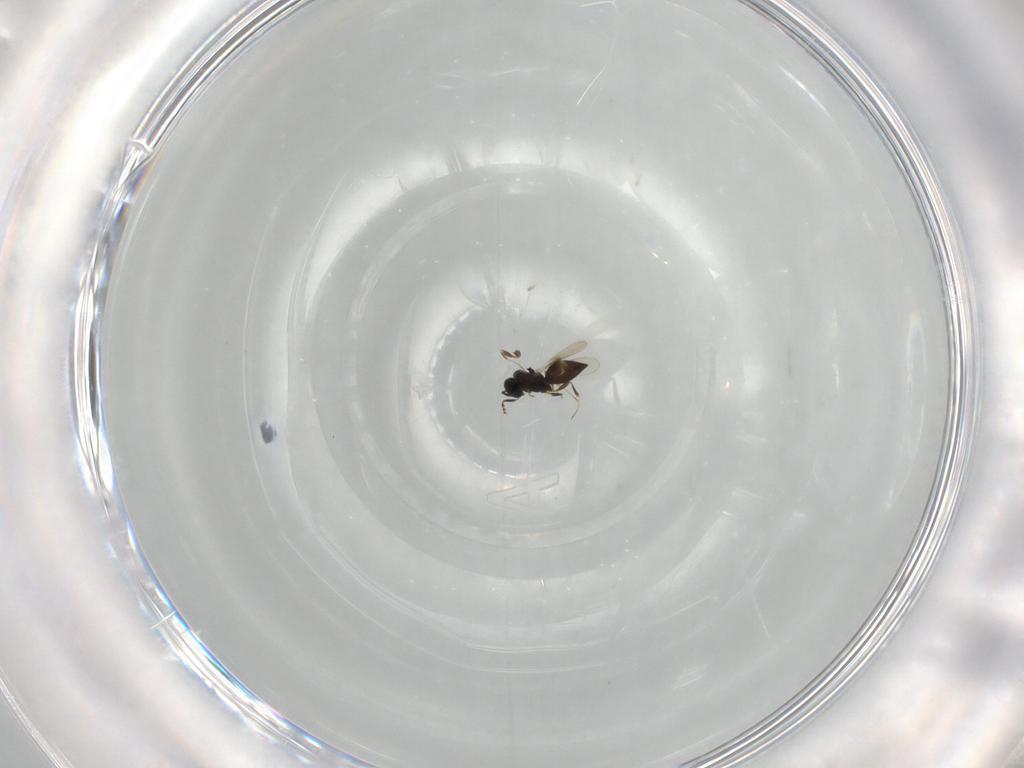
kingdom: Animalia
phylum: Arthropoda
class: Insecta
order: Hymenoptera
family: Scelionidae
